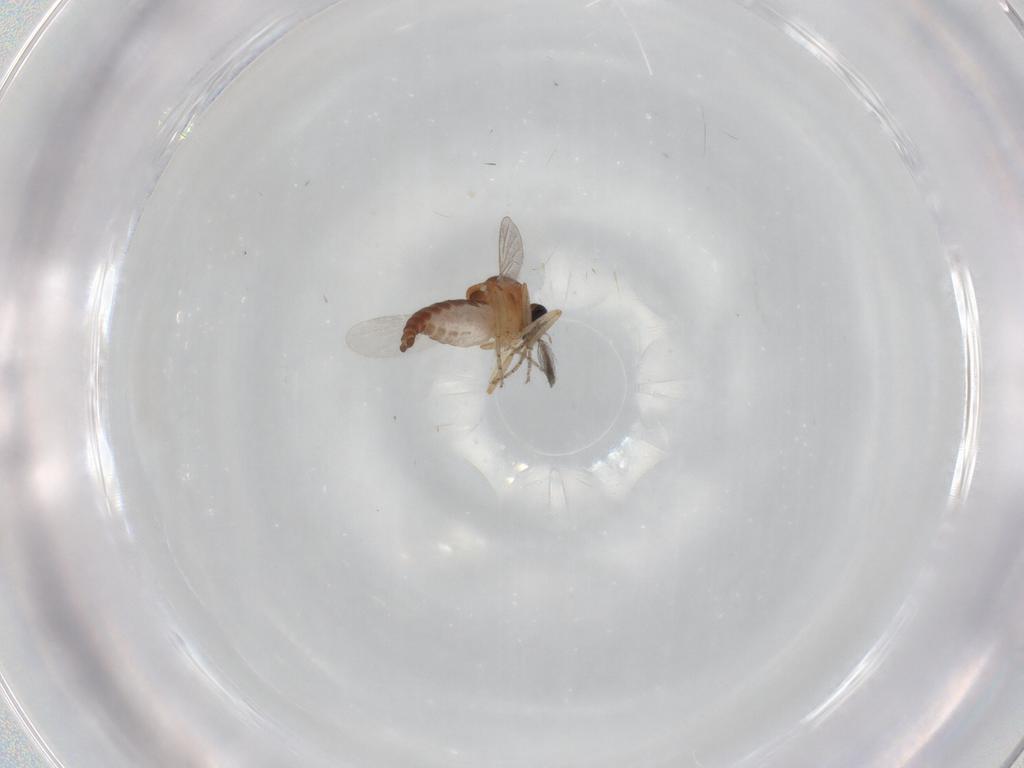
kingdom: Animalia
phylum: Arthropoda
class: Insecta
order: Diptera
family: Ceratopogonidae
